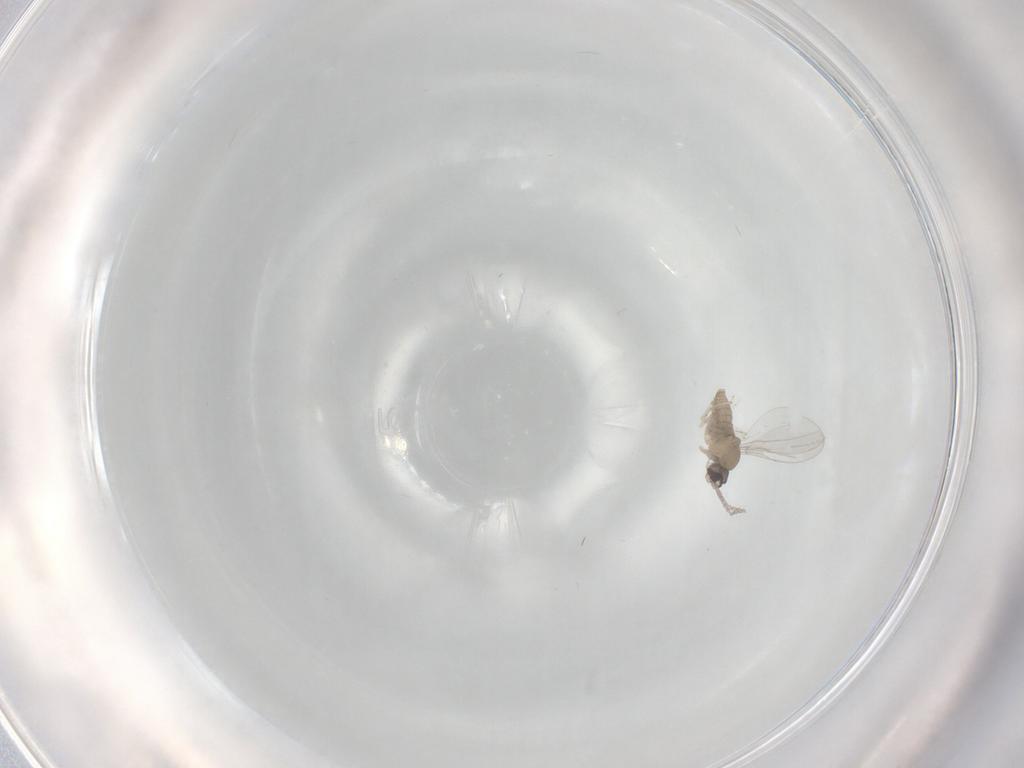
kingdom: Animalia
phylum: Arthropoda
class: Insecta
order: Diptera
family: Cecidomyiidae
